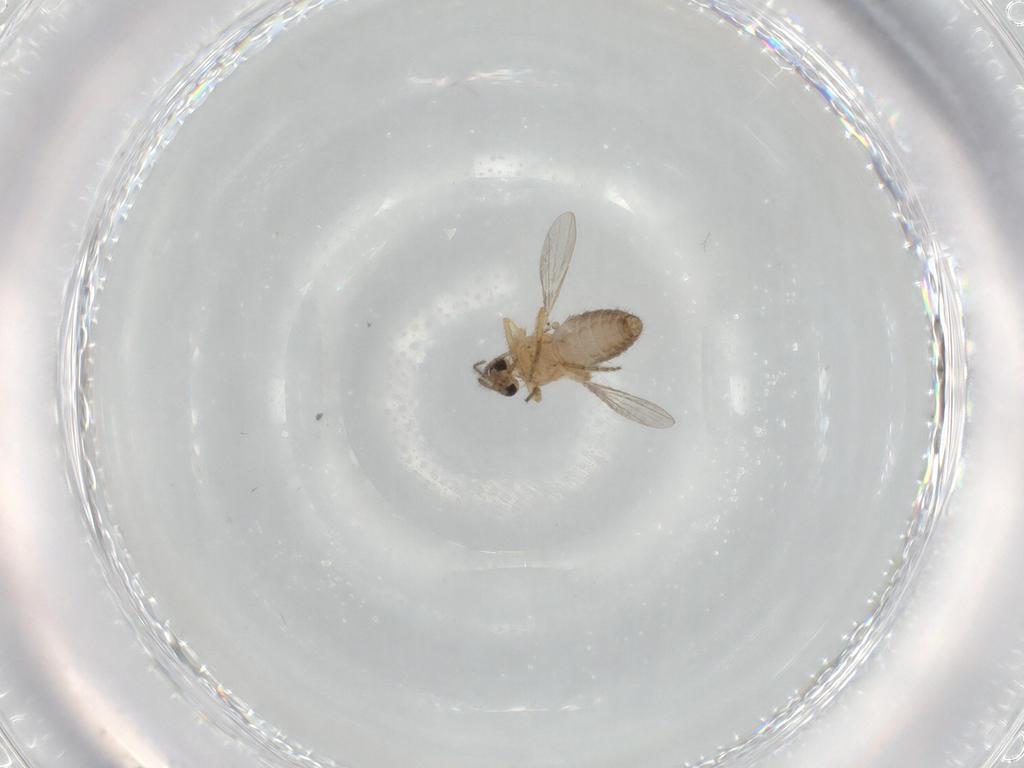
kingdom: Animalia
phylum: Arthropoda
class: Insecta
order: Diptera
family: Ceratopogonidae
